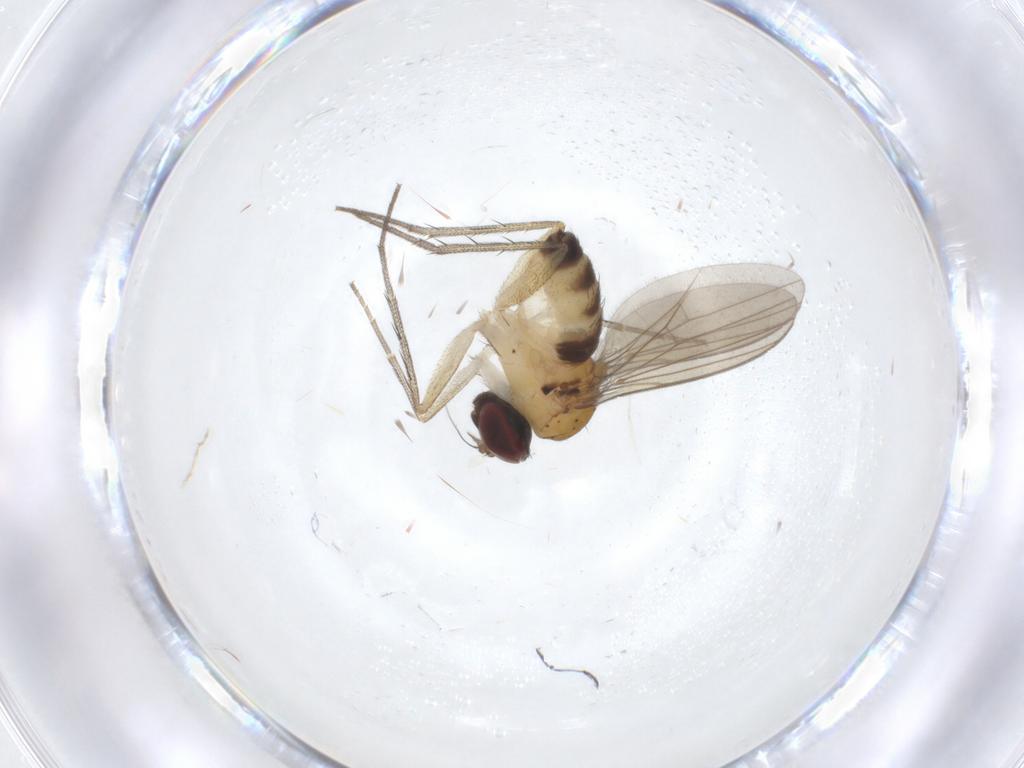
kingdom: Animalia
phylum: Arthropoda
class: Insecta
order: Diptera
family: Dolichopodidae
